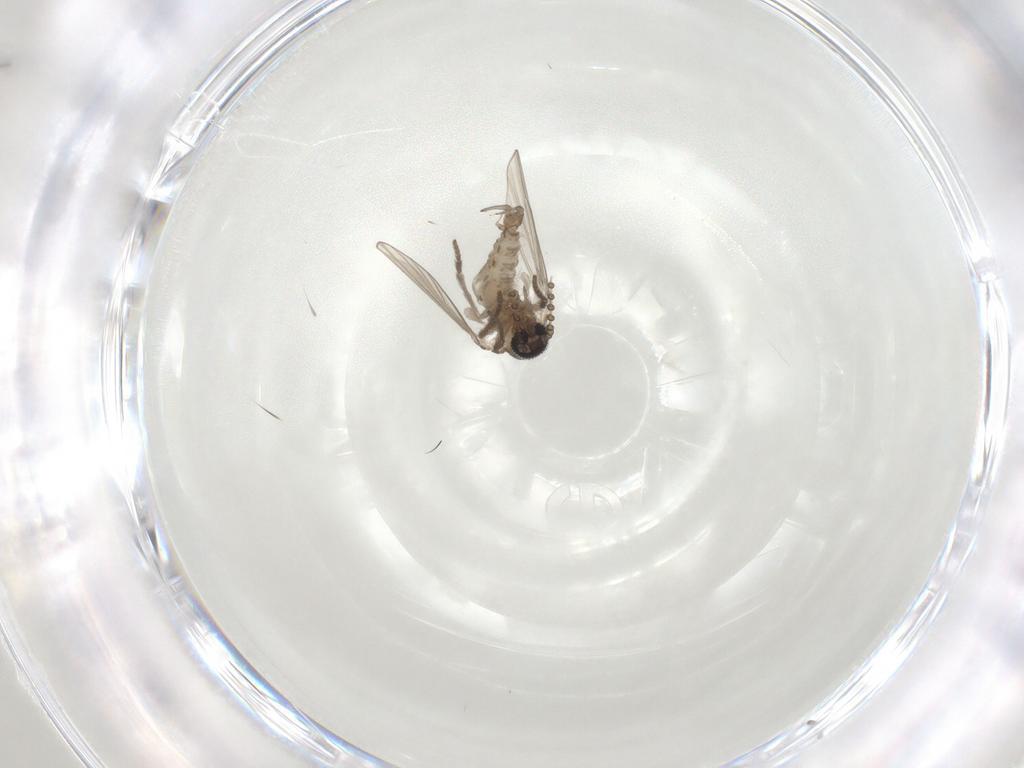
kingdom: Animalia
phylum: Arthropoda
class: Insecta
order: Diptera
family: Psychodidae
